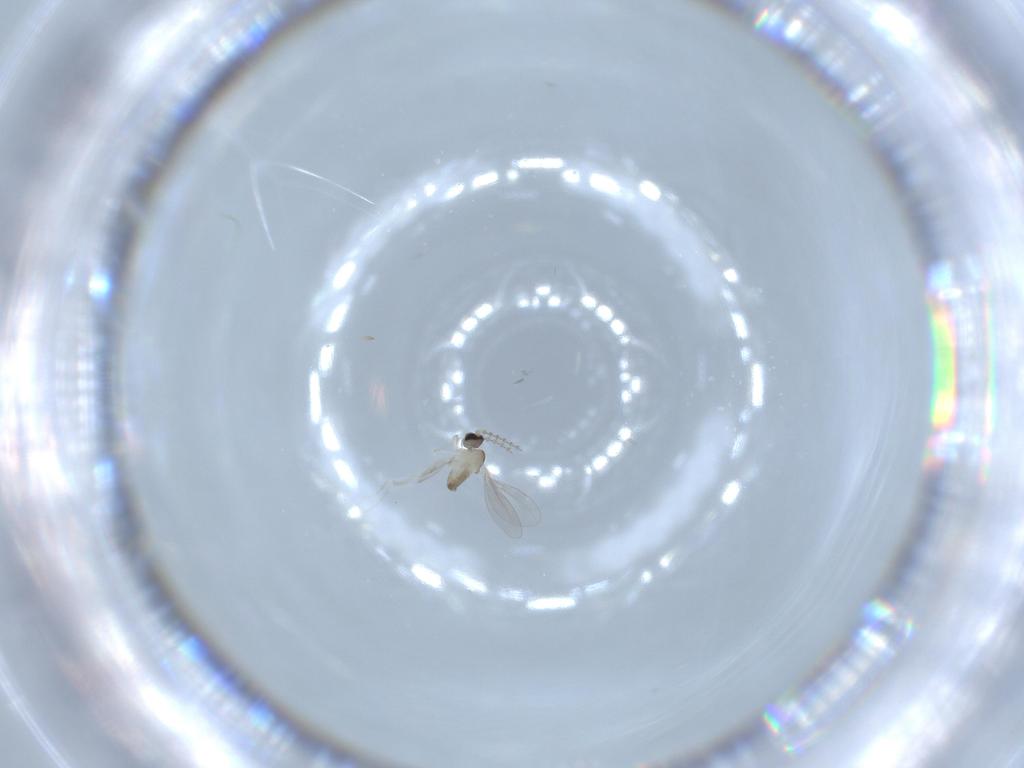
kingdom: Animalia
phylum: Arthropoda
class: Insecta
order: Diptera
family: Cecidomyiidae
